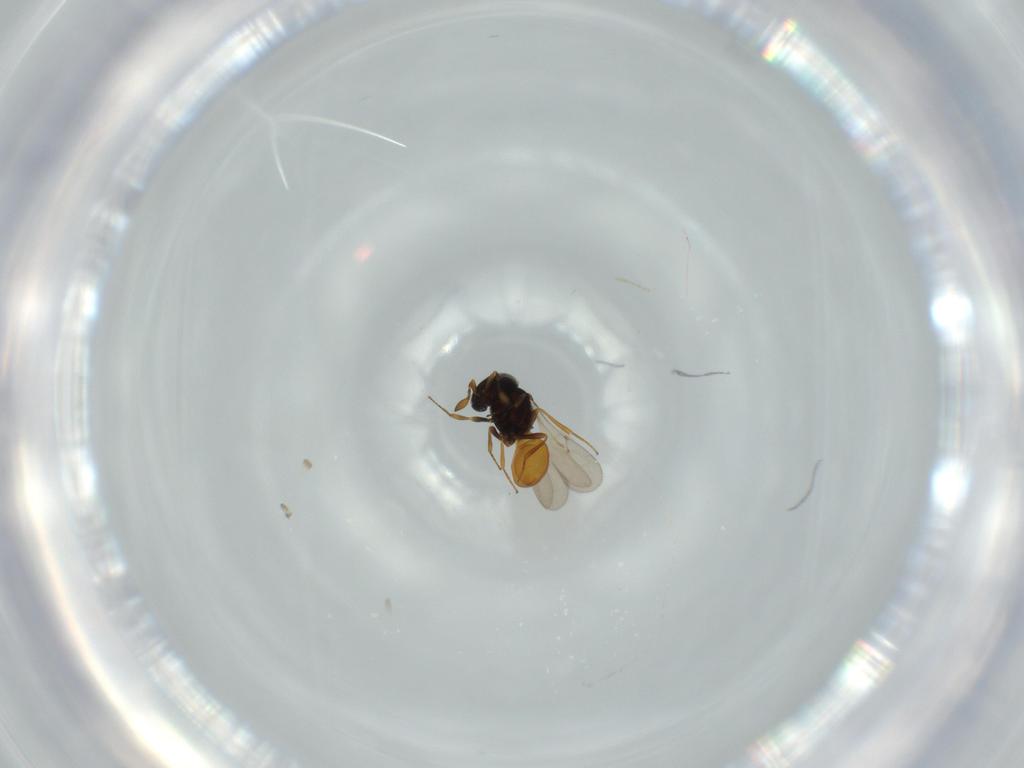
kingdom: Animalia
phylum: Arthropoda
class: Insecta
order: Hymenoptera
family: Scelionidae
